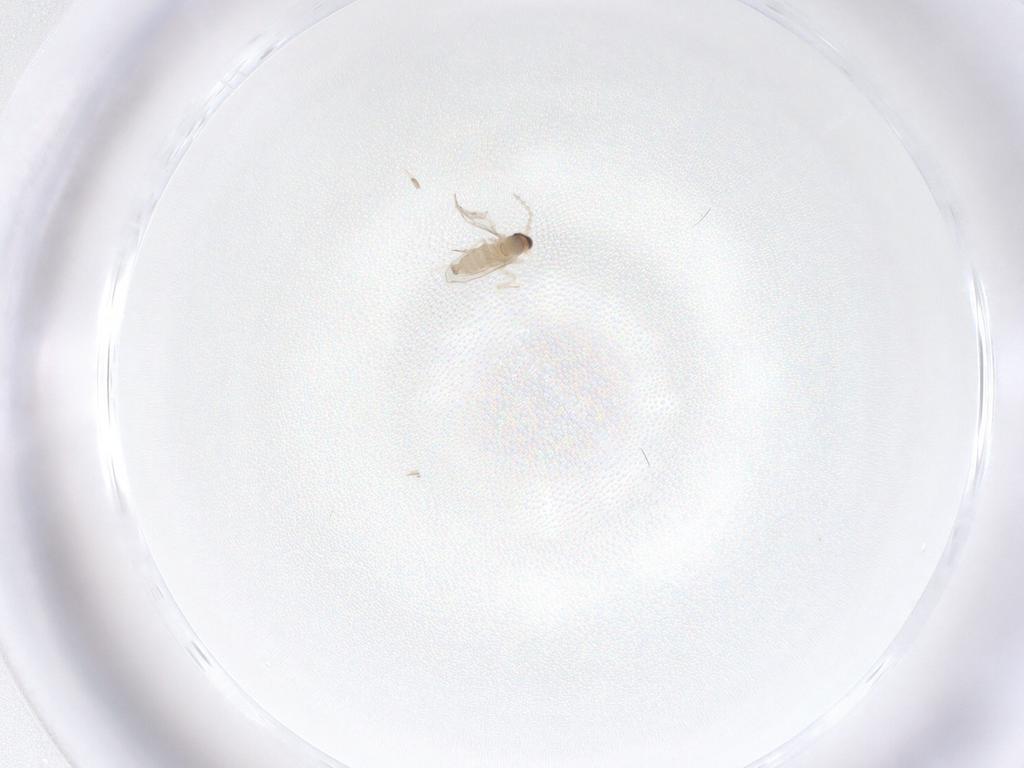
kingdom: Animalia
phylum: Arthropoda
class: Insecta
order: Diptera
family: Cecidomyiidae
